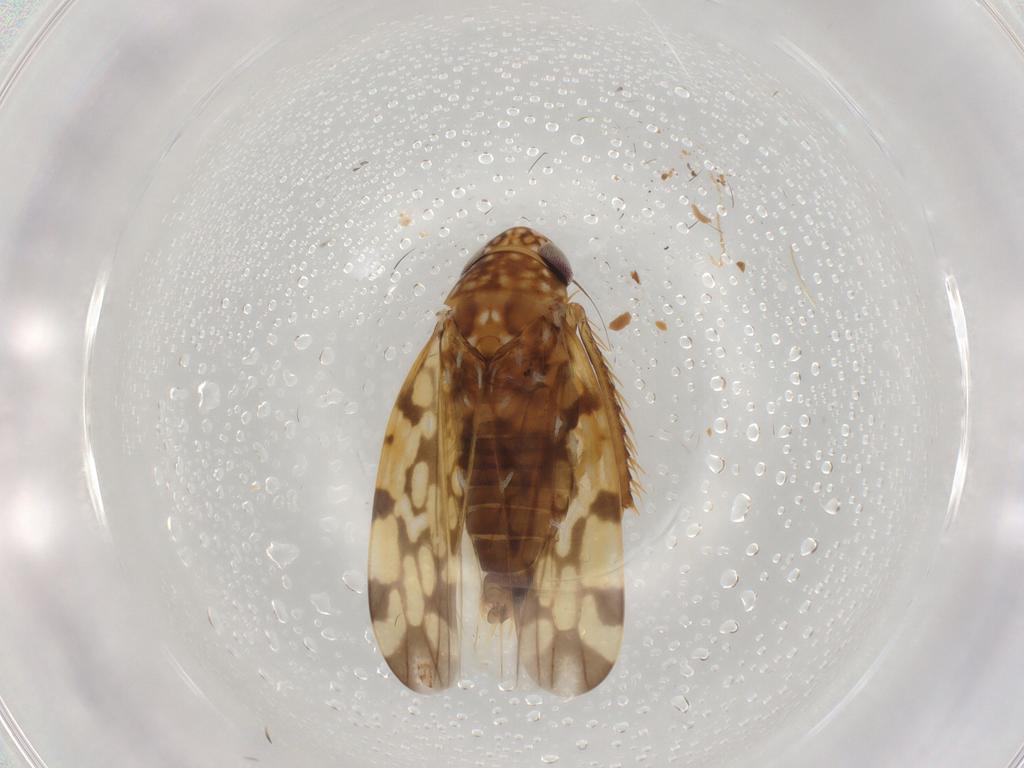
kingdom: Animalia
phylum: Arthropoda
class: Insecta
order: Hemiptera
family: Cicadellidae
